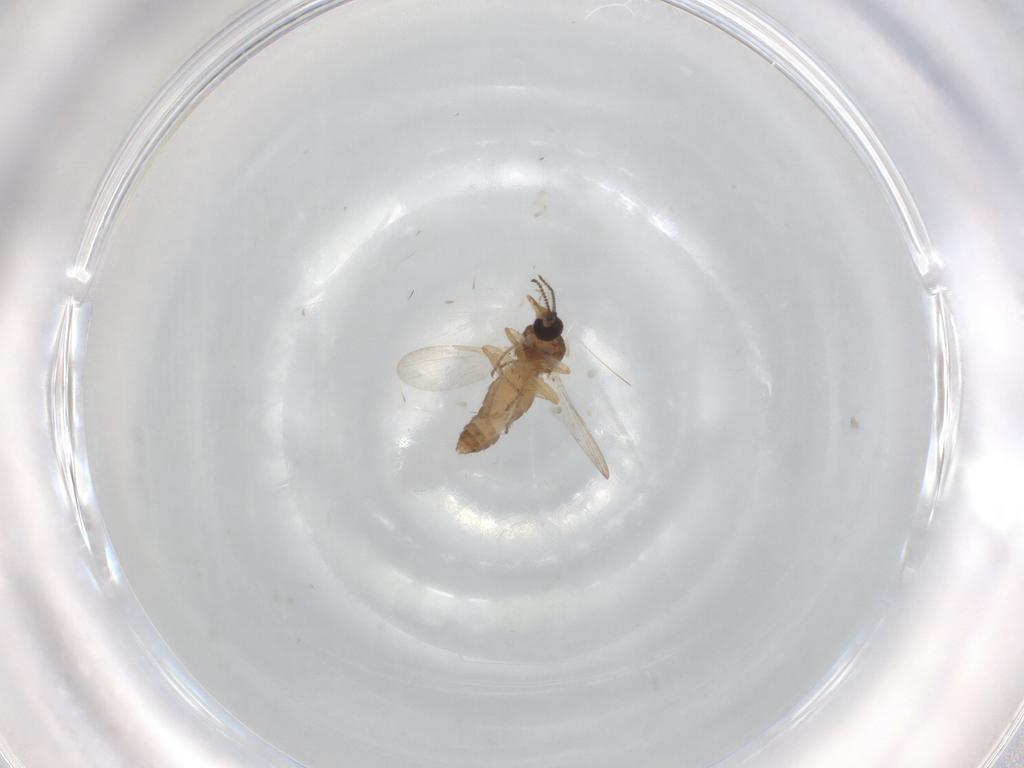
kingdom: Animalia
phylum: Arthropoda
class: Insecta
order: Diptera
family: Ceratopogonidae
